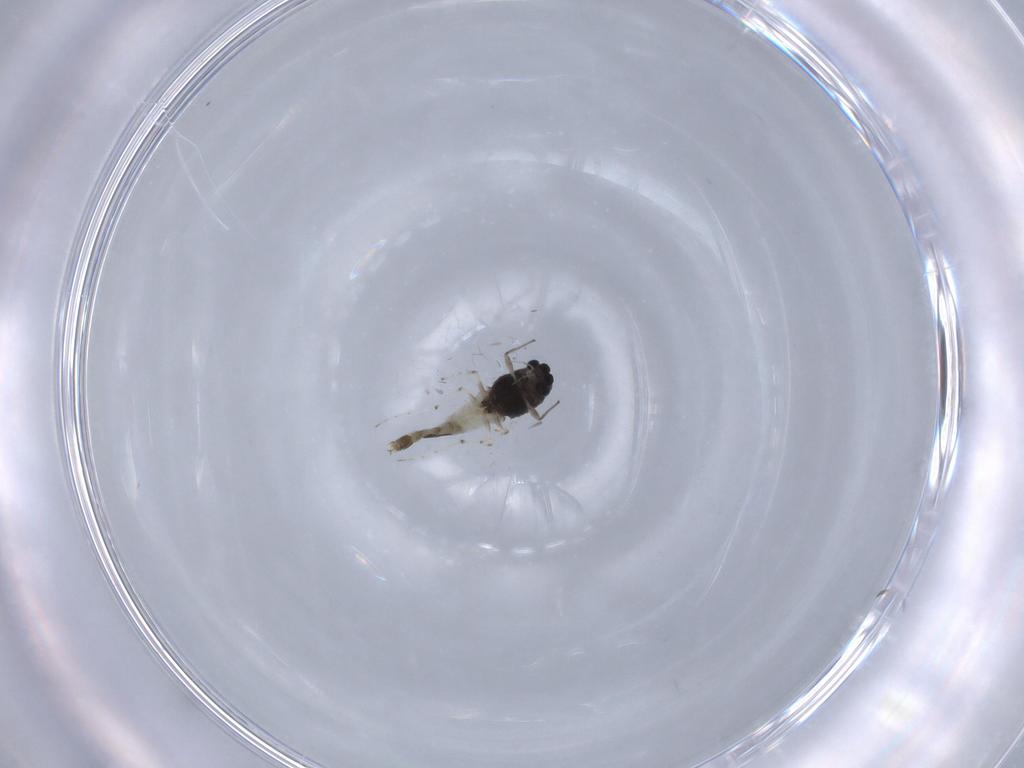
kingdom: Animalia
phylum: Arthropoda
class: Insecta
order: Diptera
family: Chironomidae
